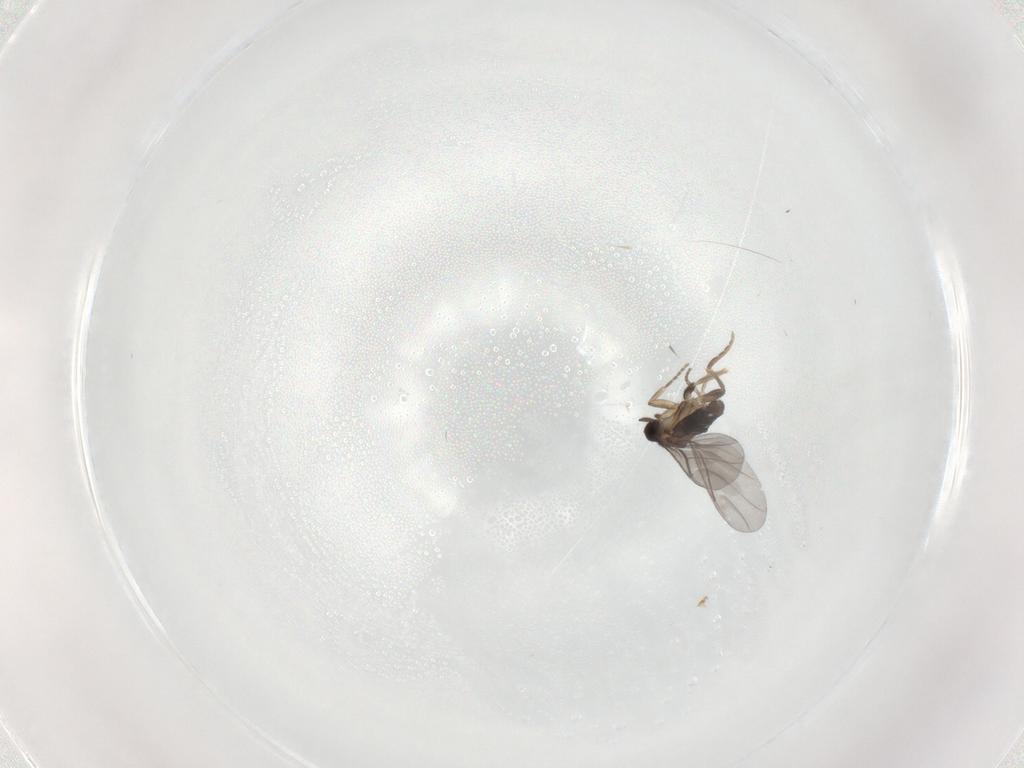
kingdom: Animalia
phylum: Arthropoda
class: Insecta
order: Diptera
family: Cecidomyiidae
